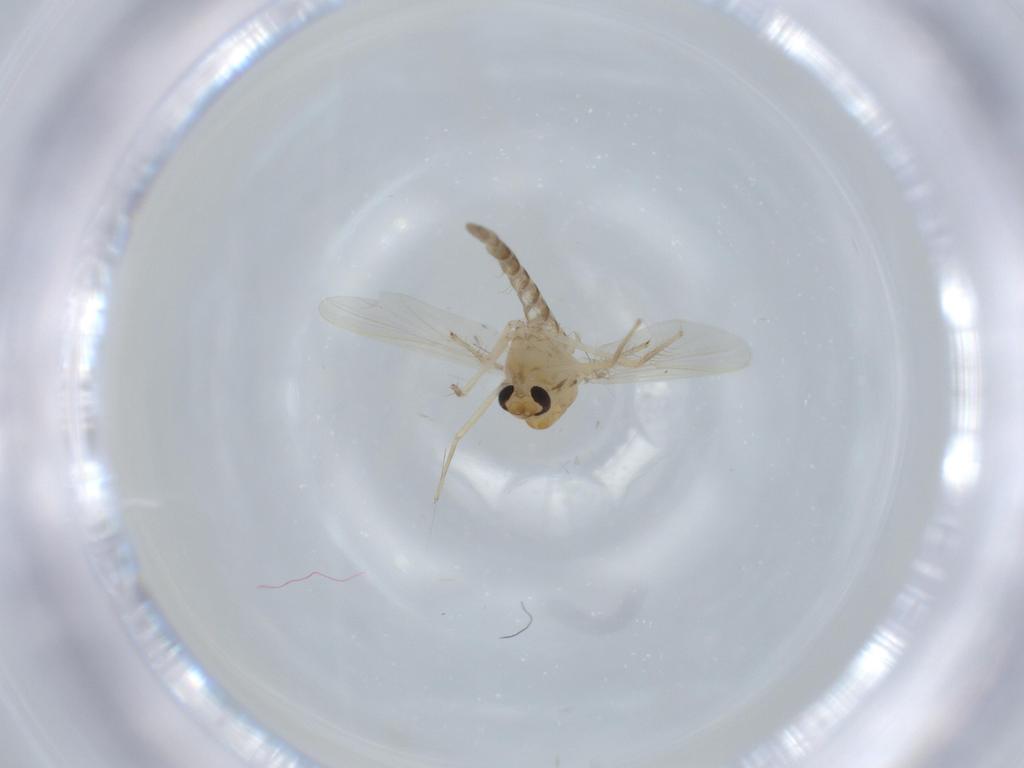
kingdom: Animalia
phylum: Arthropoda
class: Insecta
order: Diptera
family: Chironomidae
